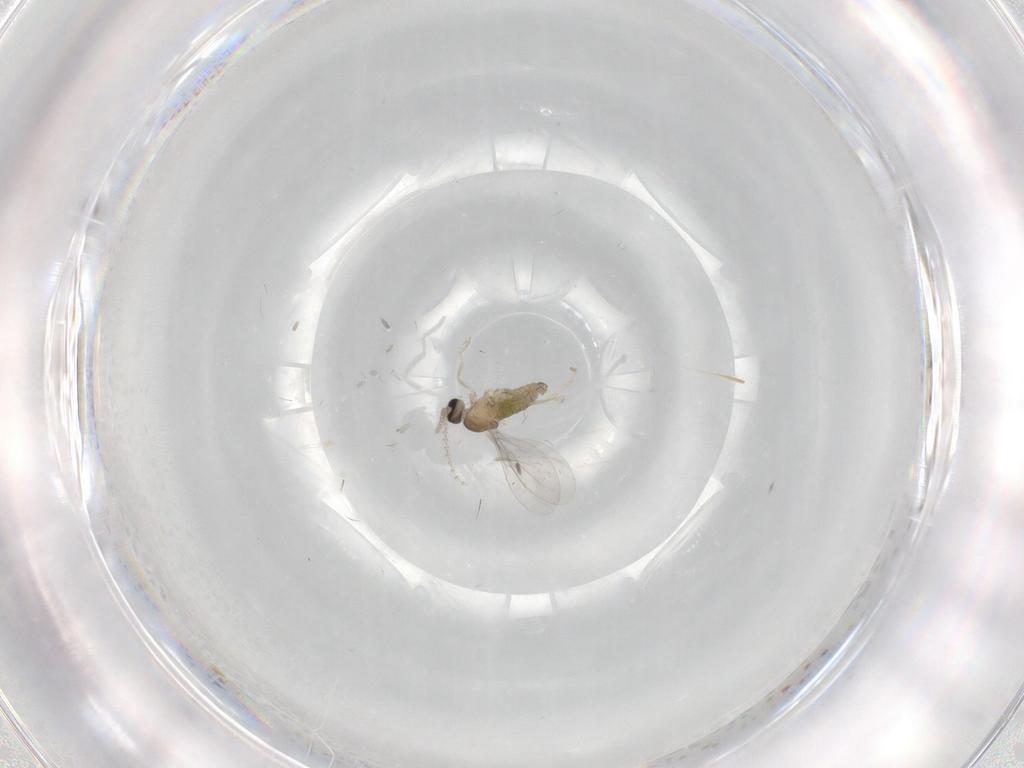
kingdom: Animalia
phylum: Arthropoda
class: Insecta
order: Diptera
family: Cecidomyiidae
